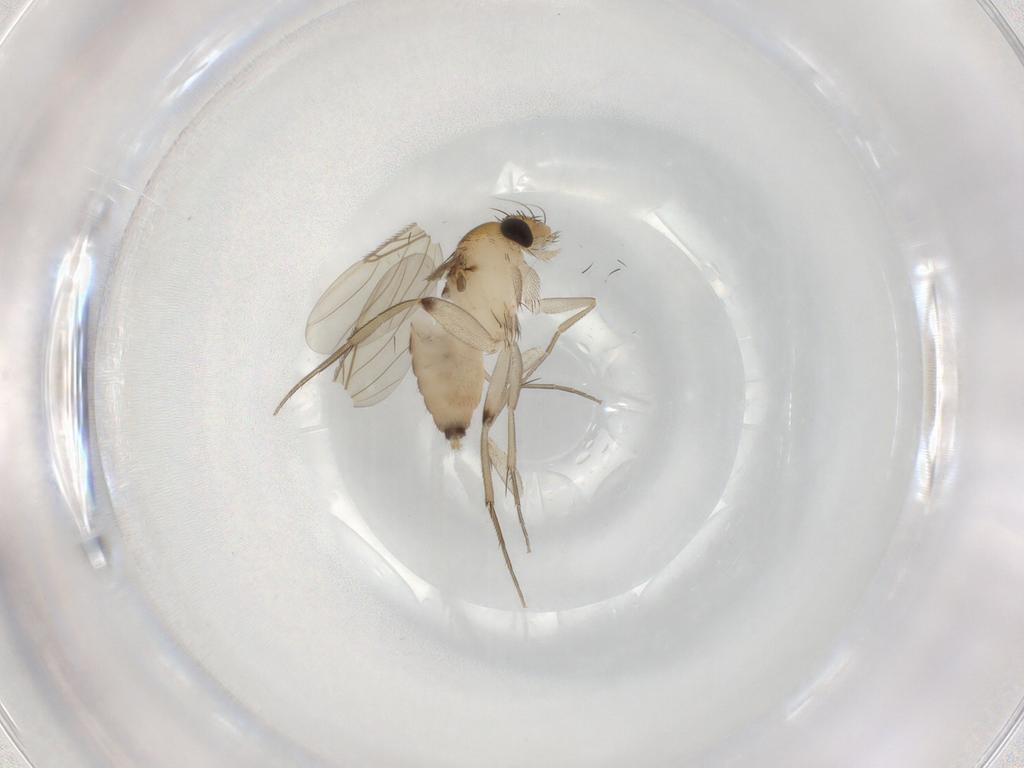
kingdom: Animalia
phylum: Arthropoda
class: Insecta
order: Diptera
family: Phoridae
